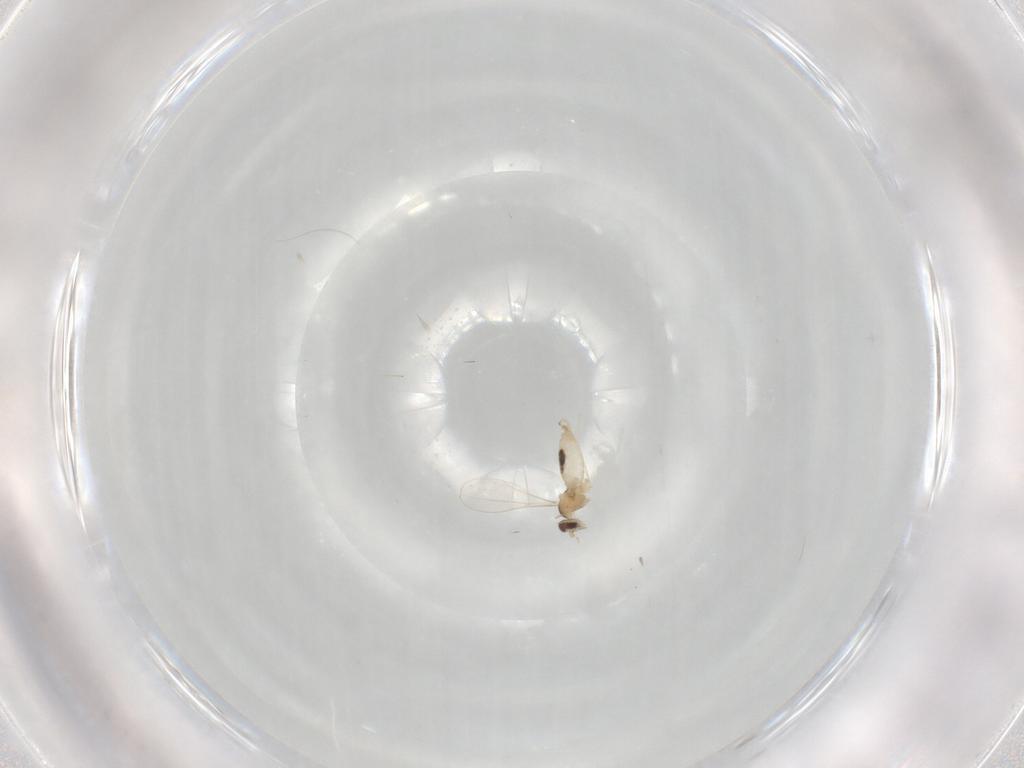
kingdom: Animalia
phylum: Arthropoda
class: Insecta
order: Diptera
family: Cecidomyiidae
